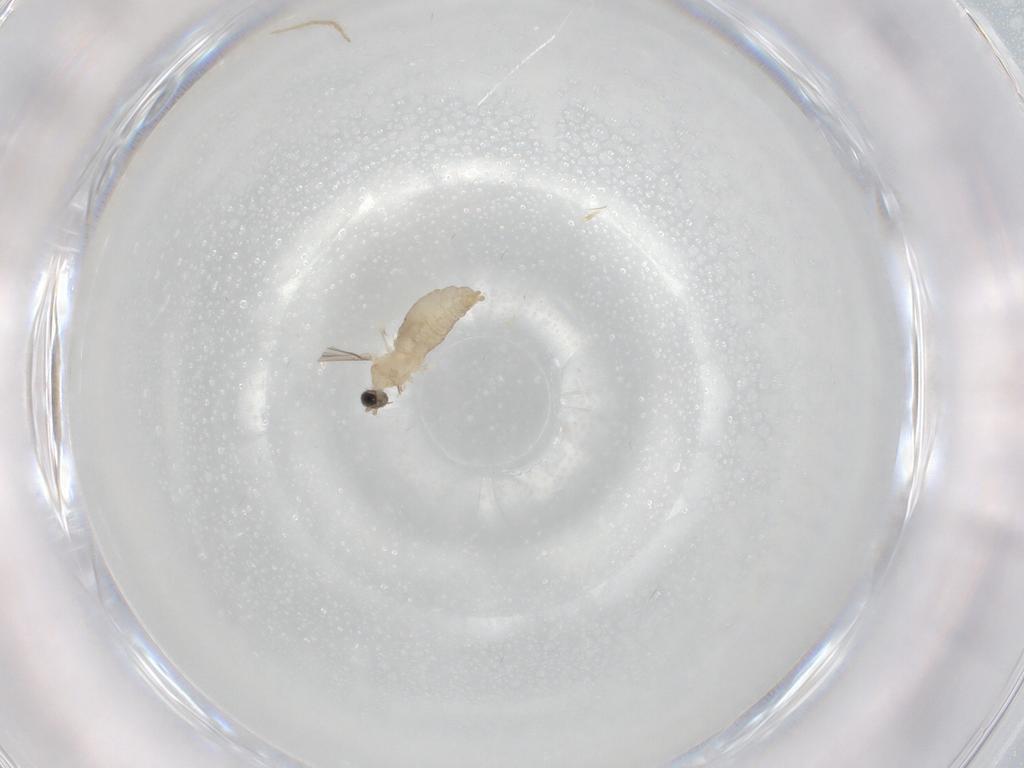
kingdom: Animalia
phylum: Arthropoda
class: Insecta
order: Diptera
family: Cecidomyiidae
